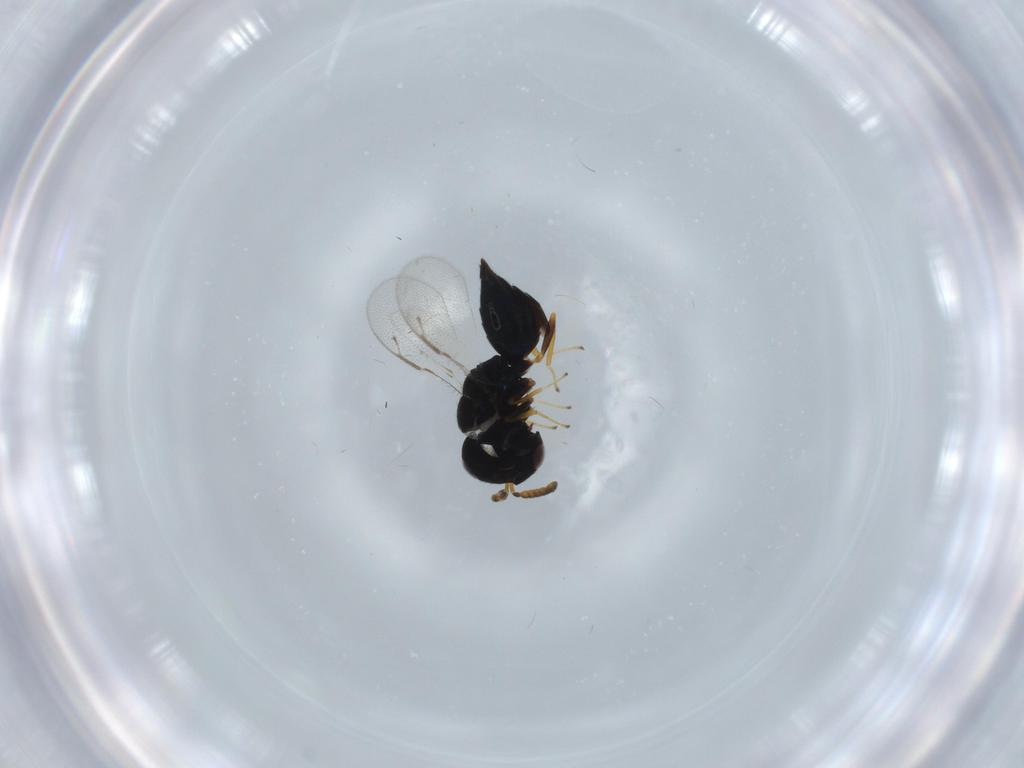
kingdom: Animalia
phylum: Arthropoda
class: Insecta
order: Hymenoptera
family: Pteromalidae
